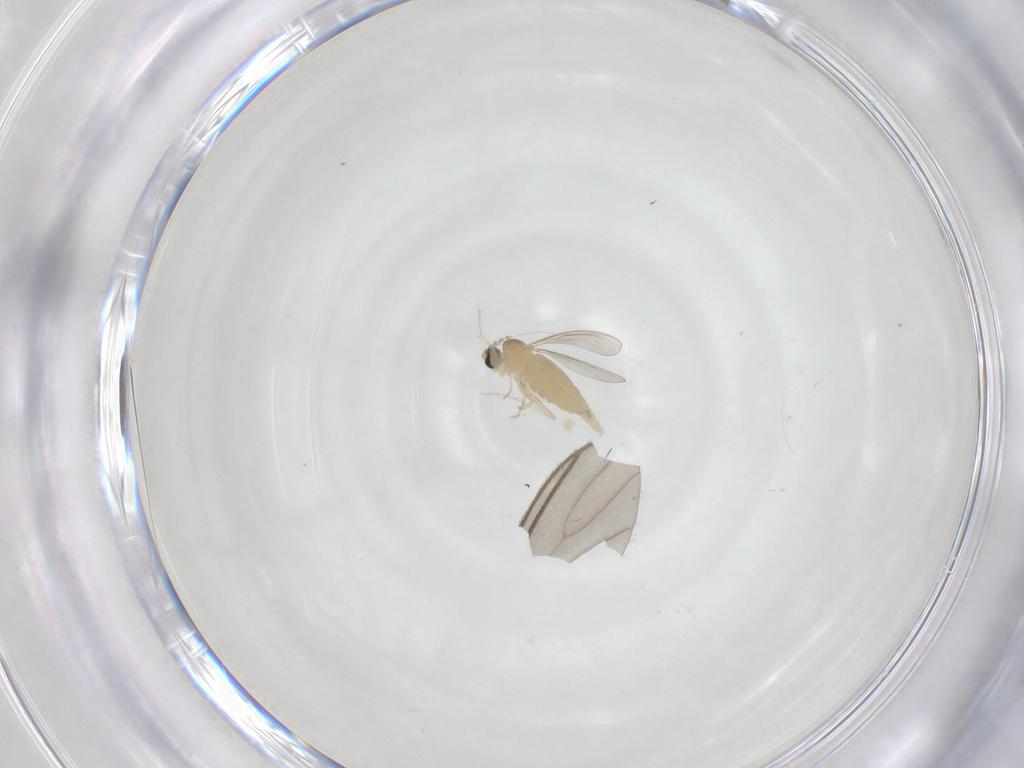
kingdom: Animalia
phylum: Arthropoda
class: Insecta
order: Diptera
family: Cecidomyiidae
